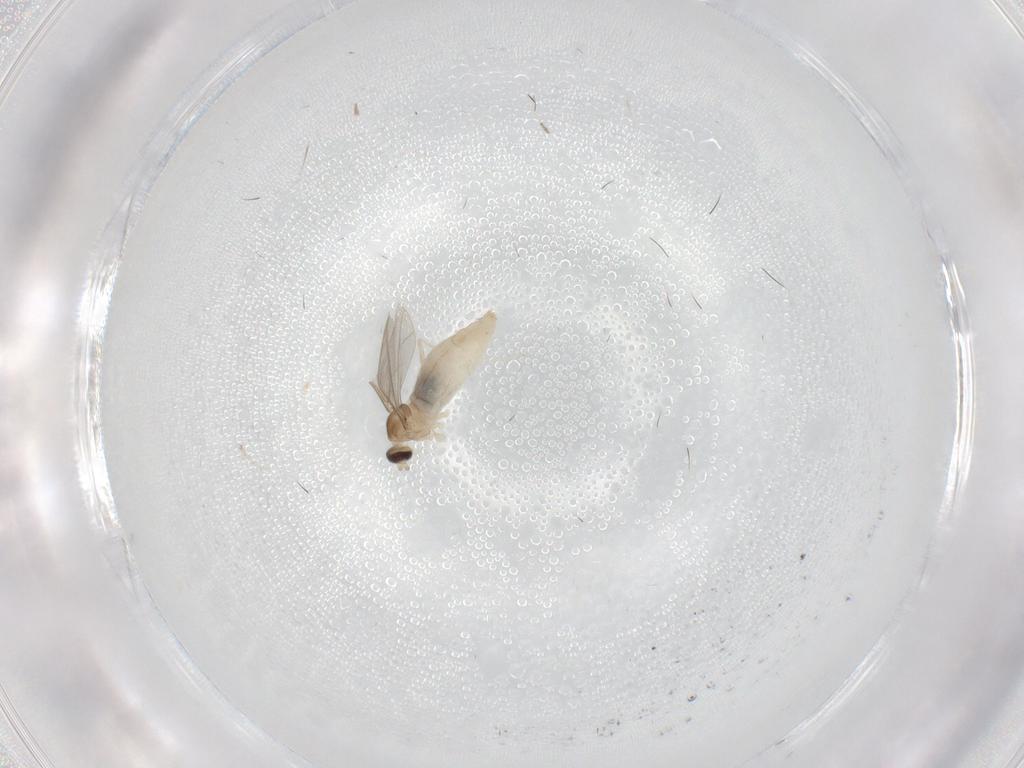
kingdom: Animalia
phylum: Arthropoda
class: Insecta
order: Diptera
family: Cecidomyiidae
